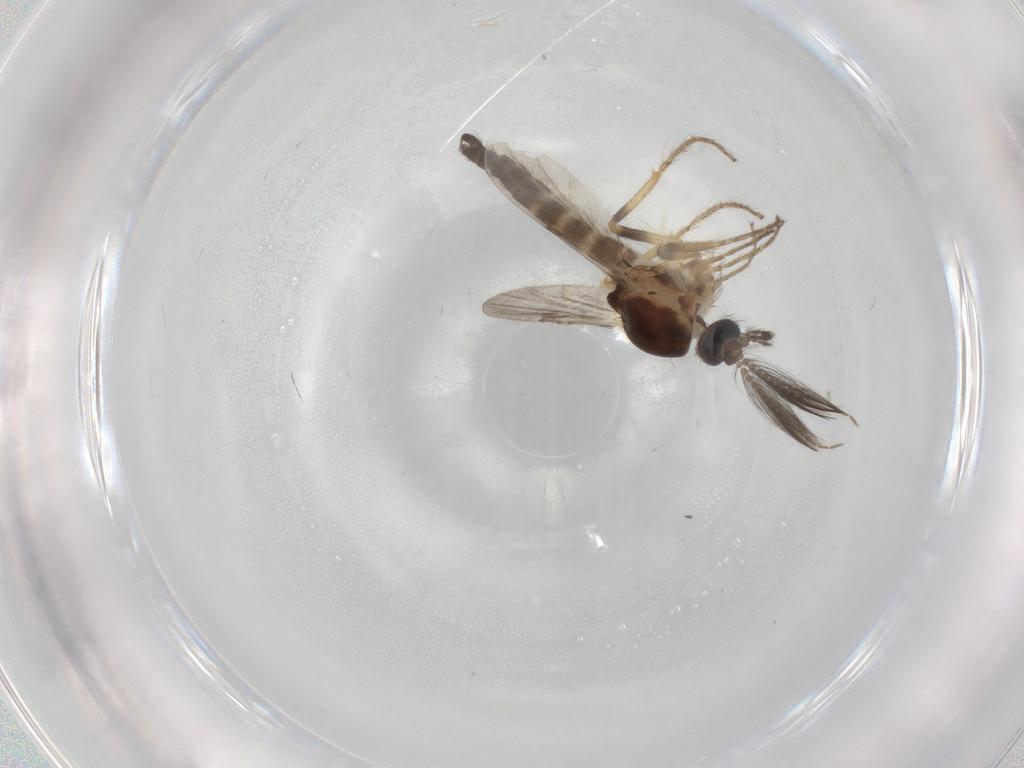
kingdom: Animalia
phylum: Arthropoda
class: Insecta
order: Diptera
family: Ceratopogonidae
